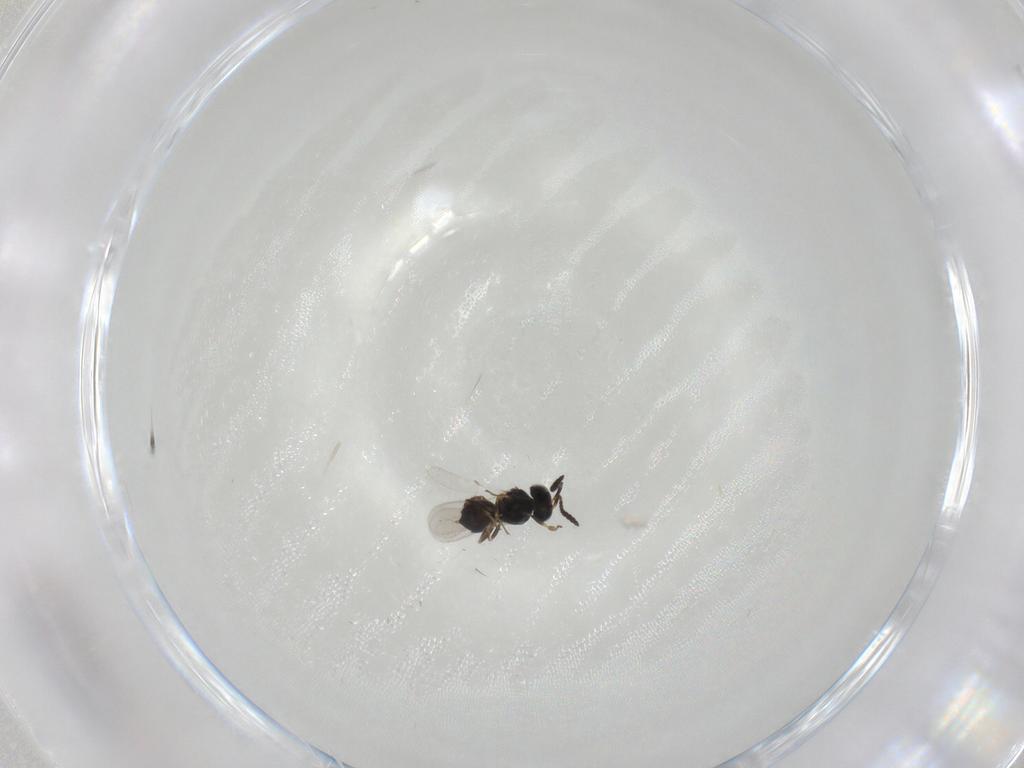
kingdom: Animalia
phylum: Arthropoda
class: Insecta
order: Hymenoptera
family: Scelionidae
